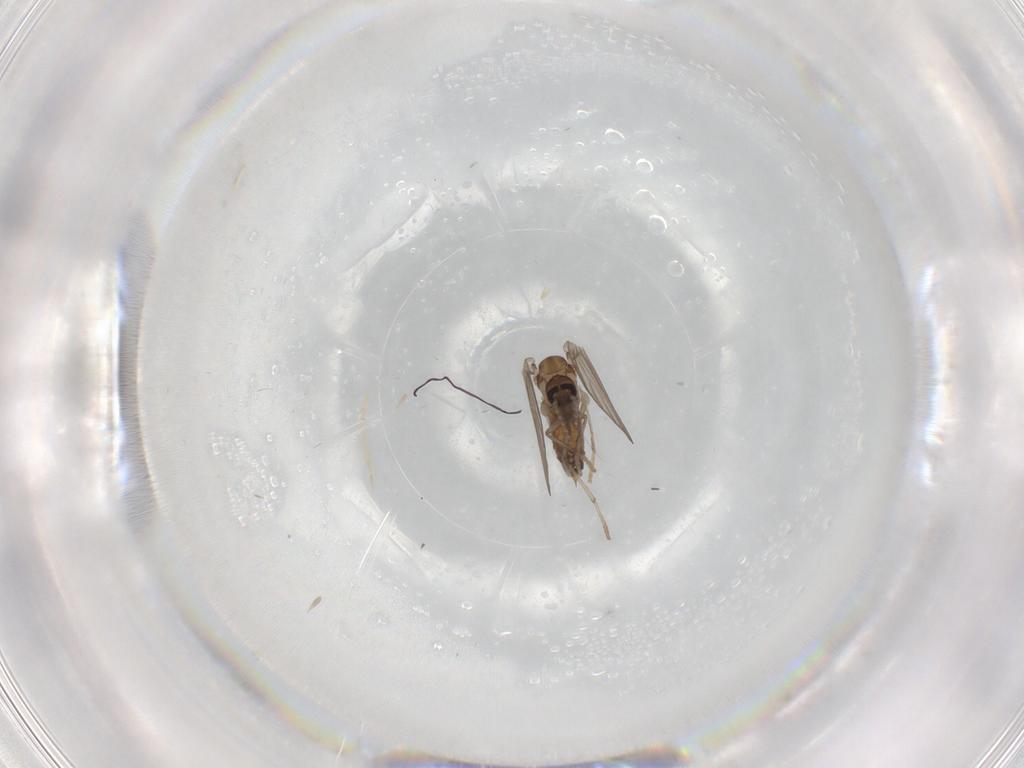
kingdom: Animalia
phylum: Arthropoda
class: Insecta
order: Diptera
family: Psychodidae
